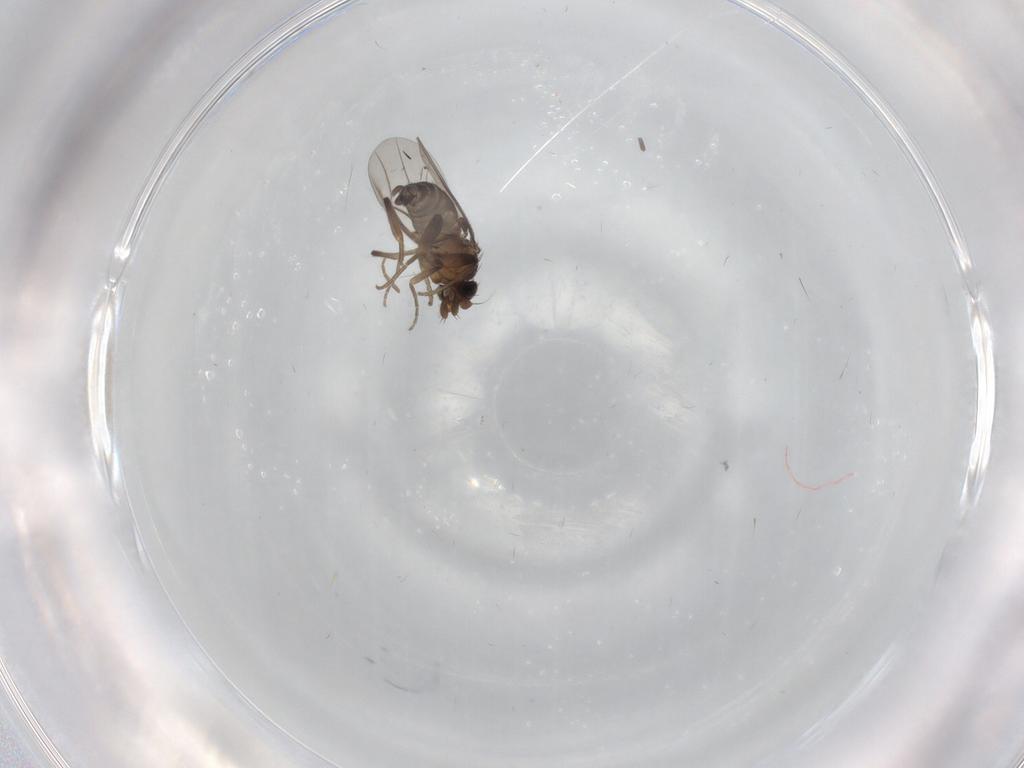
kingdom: Animalia
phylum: Arthropoda
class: Insecta
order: Diptera
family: Phoridae
